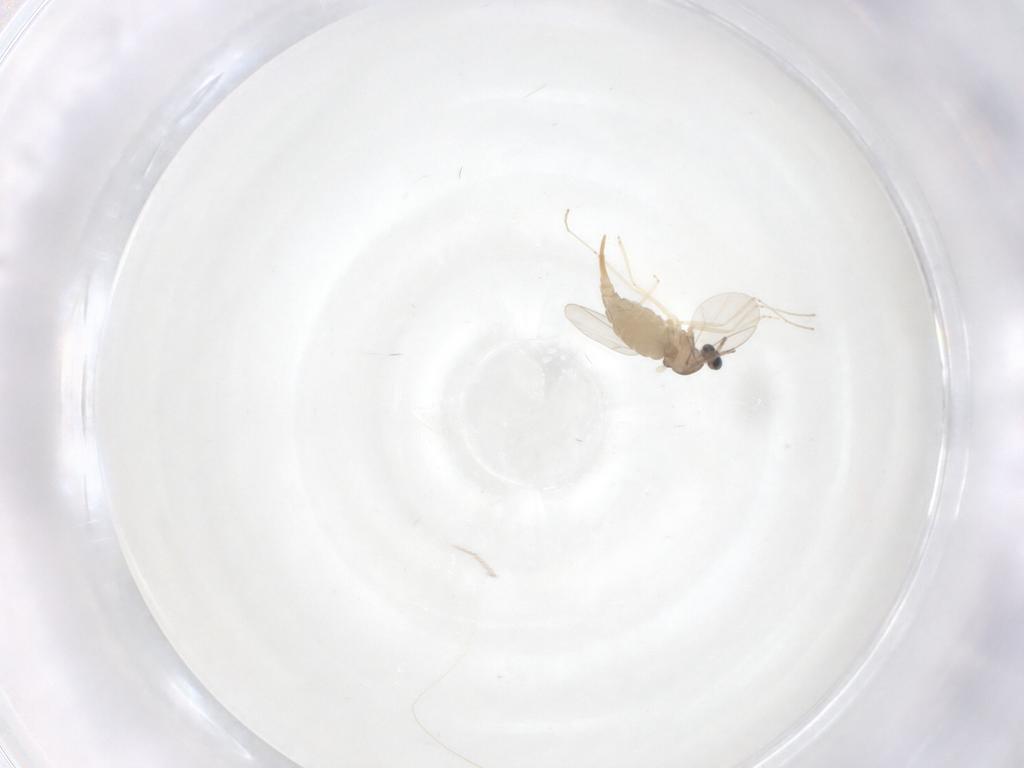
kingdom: Animalia
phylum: Arthropoda
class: Insecta
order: Diptera
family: Cecidomyiidae
